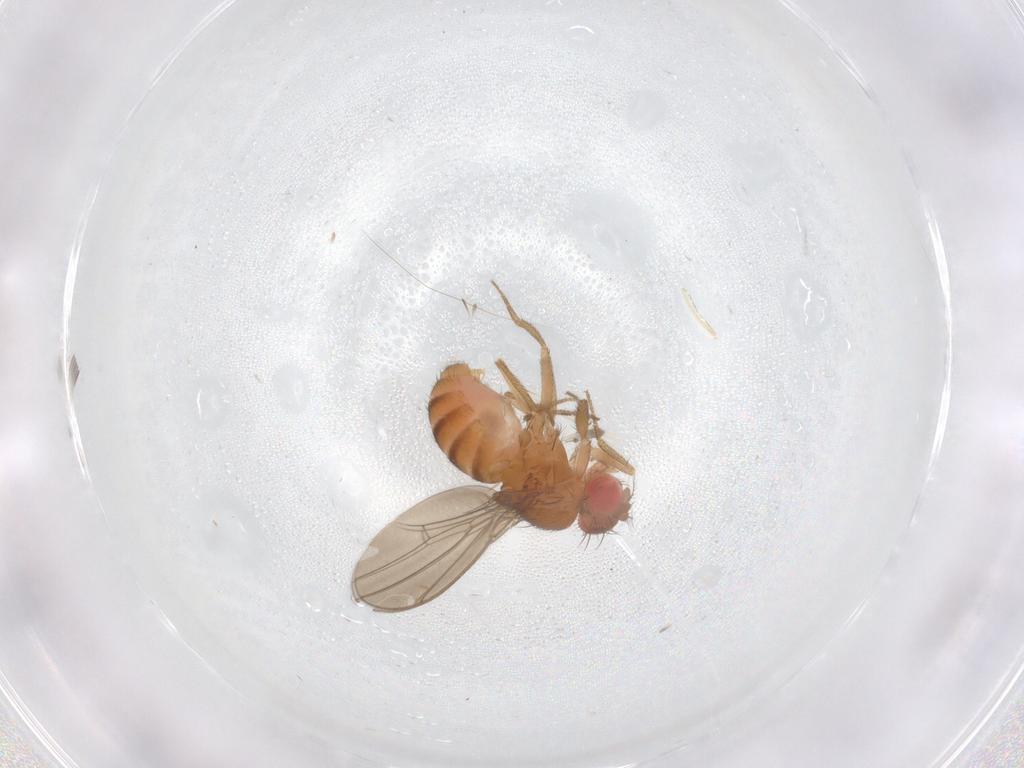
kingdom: Animalia
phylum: Arthropoda
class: Insecta
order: Diptera
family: Drosophilidae
